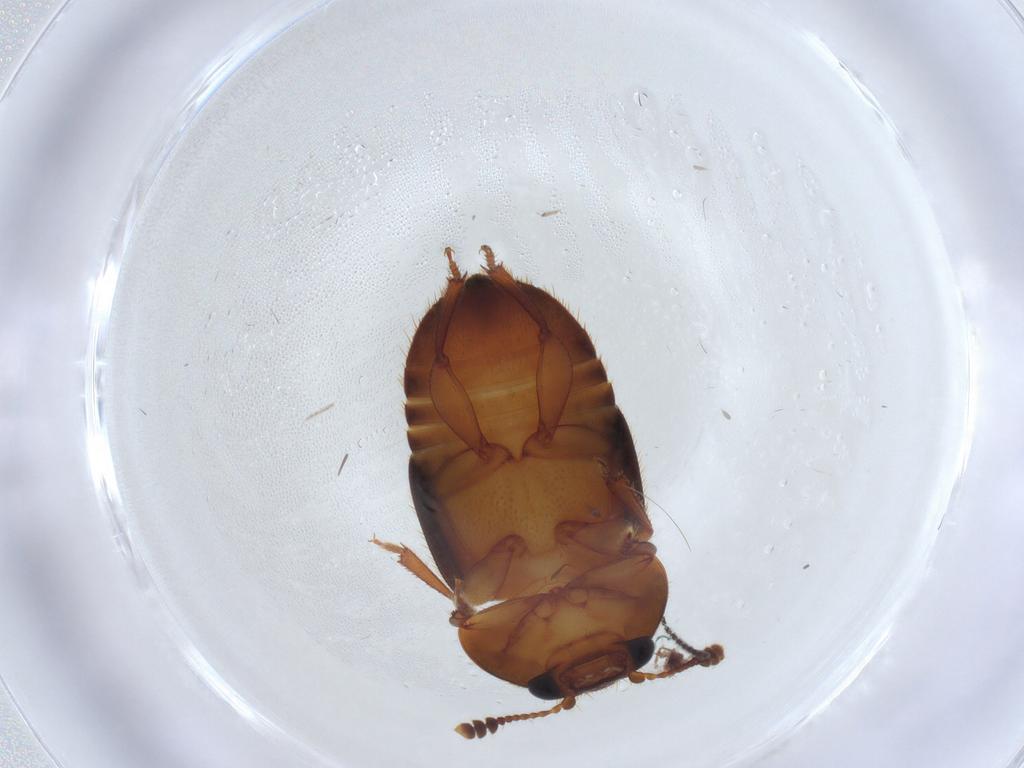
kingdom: Animalia
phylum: Arthropoda
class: Insecta
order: Coleoptera
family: Nitidulidae
